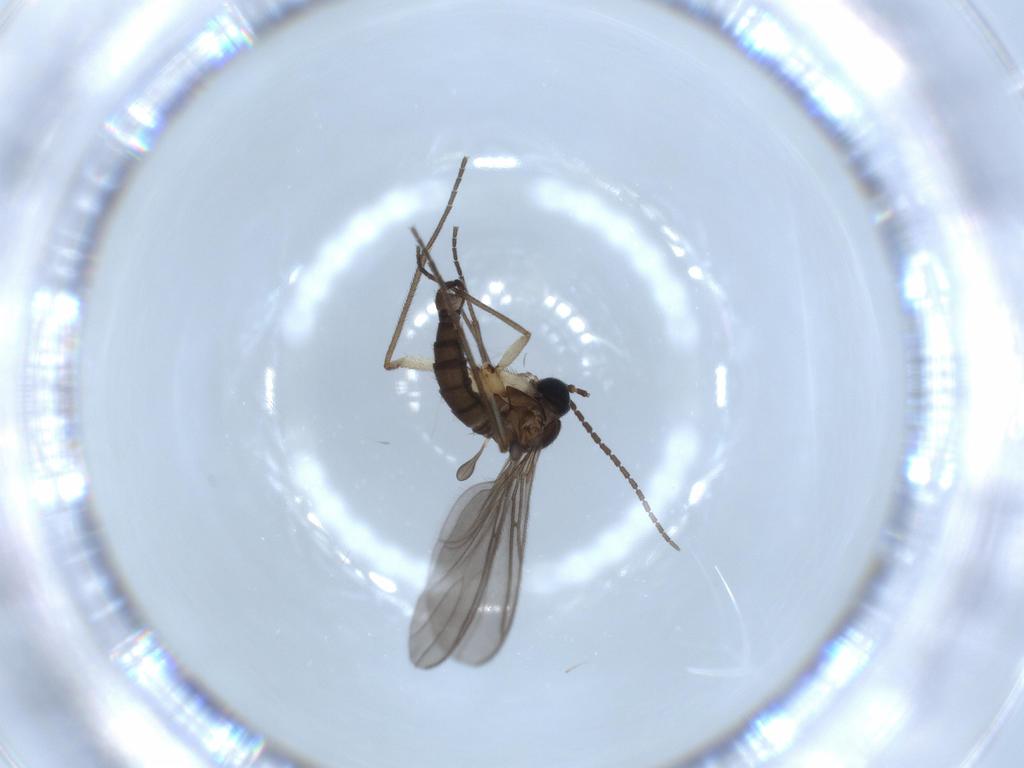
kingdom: Animalia
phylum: Arthropoda
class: Insecta
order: Diptera
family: Sciaridae
